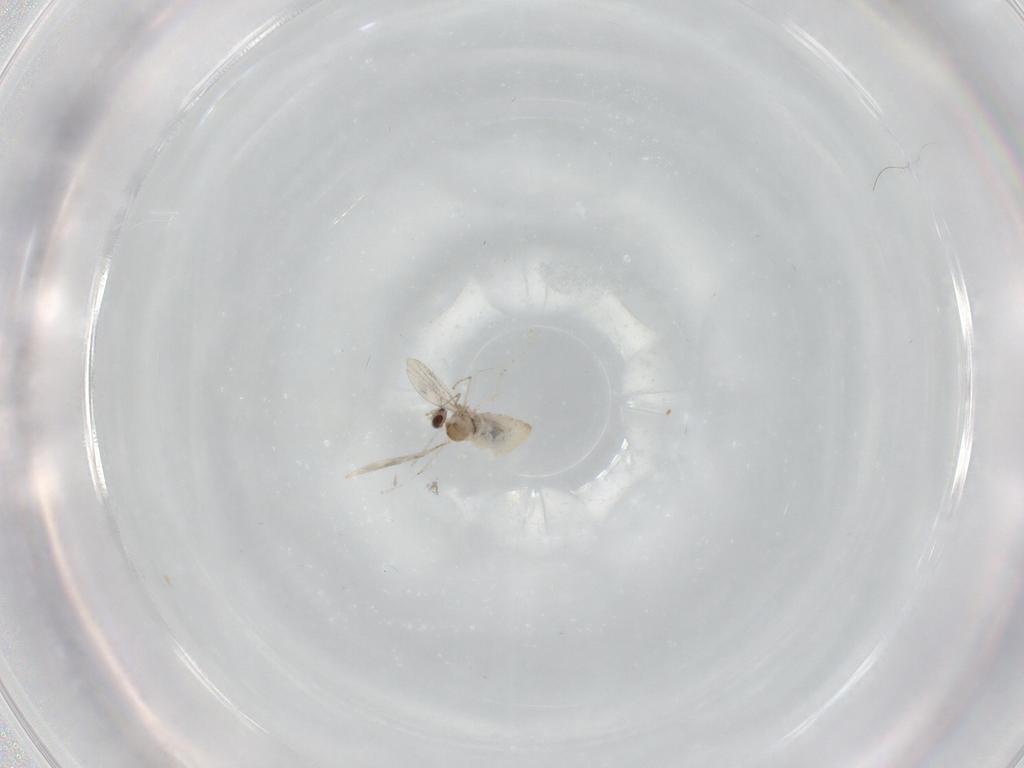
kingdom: Animalia
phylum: Arthropoda
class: Insecta
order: Diptera
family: Cecidomyiidae
